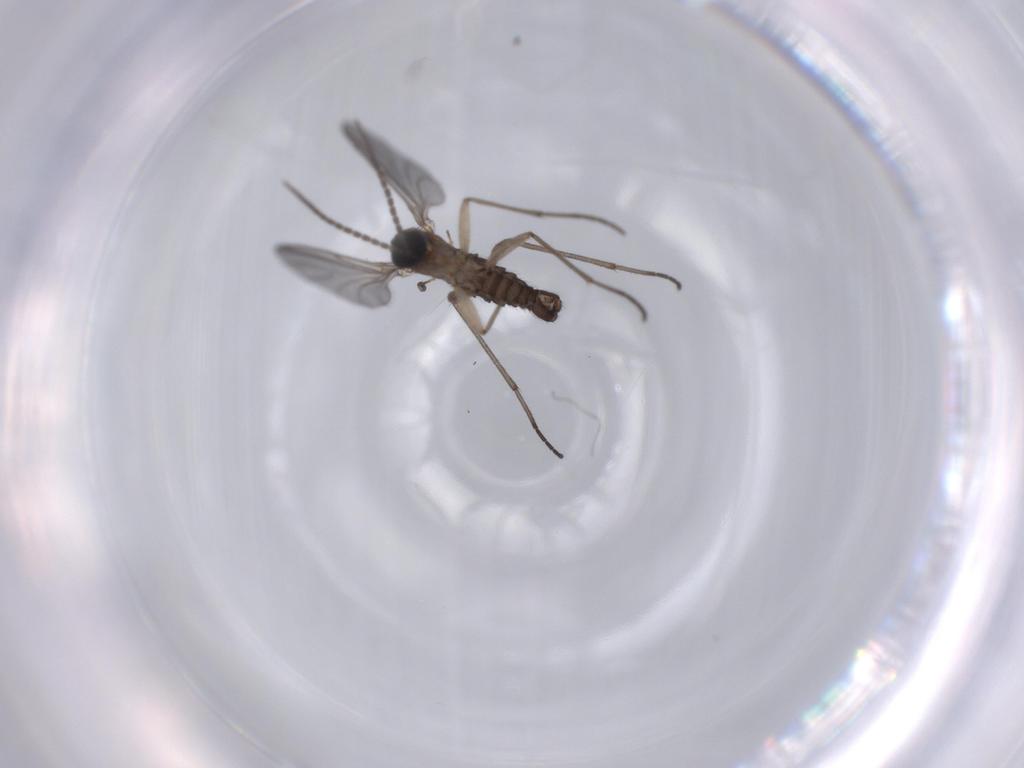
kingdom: Animalia
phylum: Arthropoda
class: Insecta
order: Diptera
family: Sciaridae
